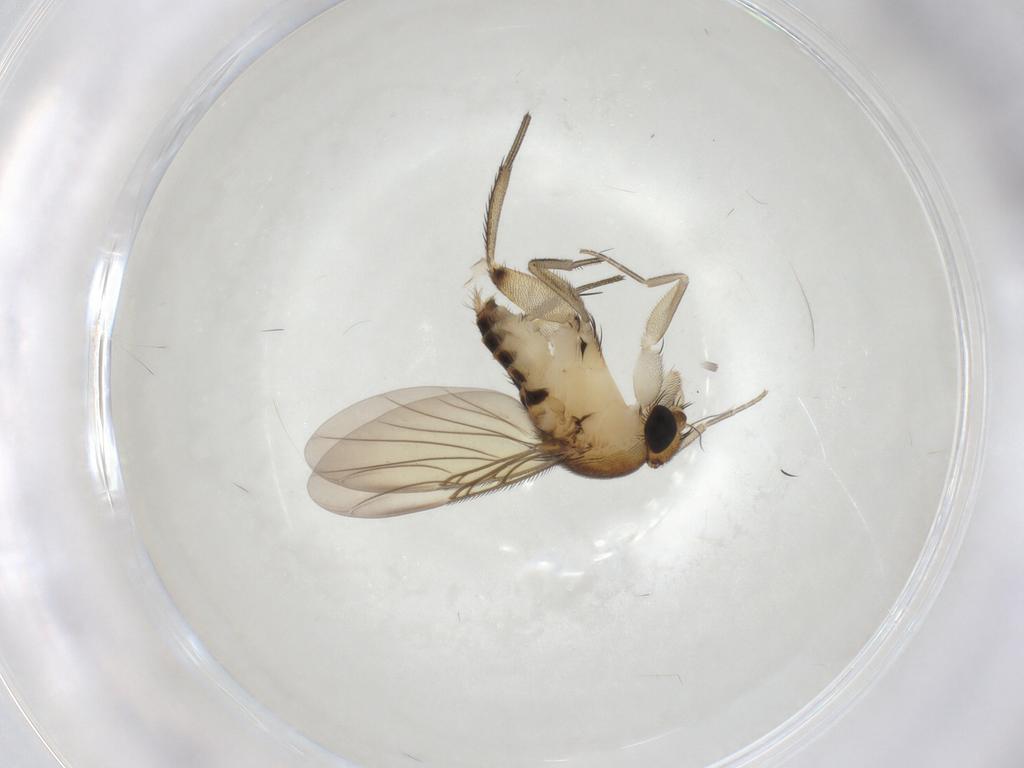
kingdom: Animalia
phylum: Arthropoda
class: Insecta
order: Diptera
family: Phoridae
